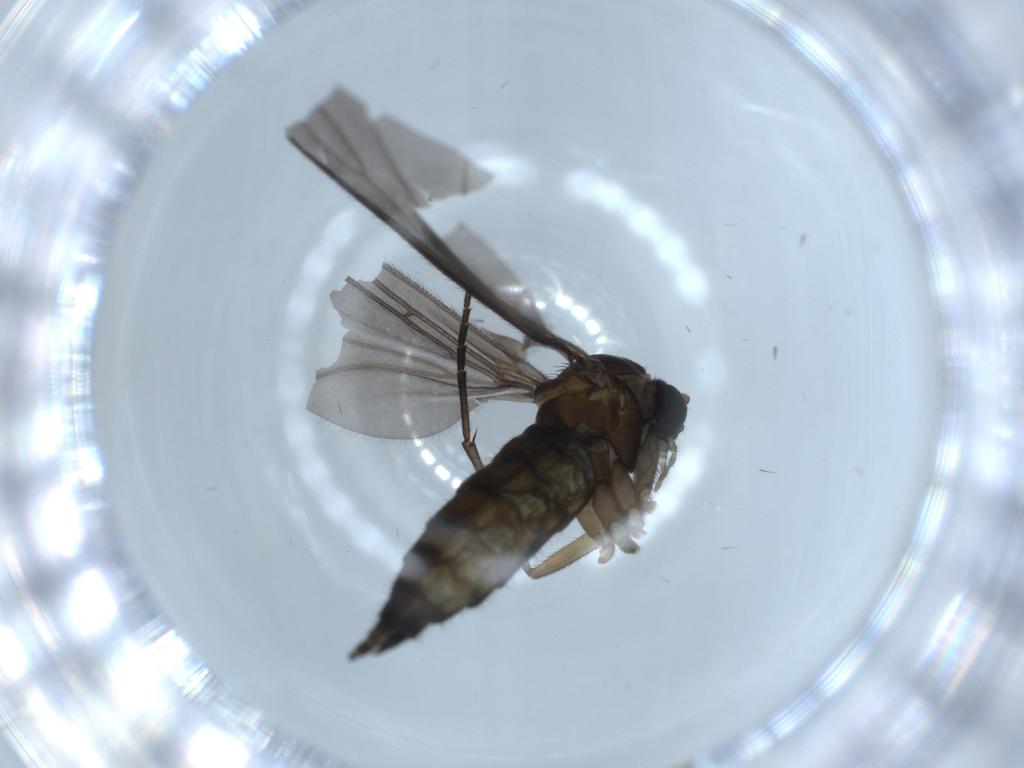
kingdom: Animalia
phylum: Arthropoda
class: Insecta
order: Diptera
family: Sciaridae
